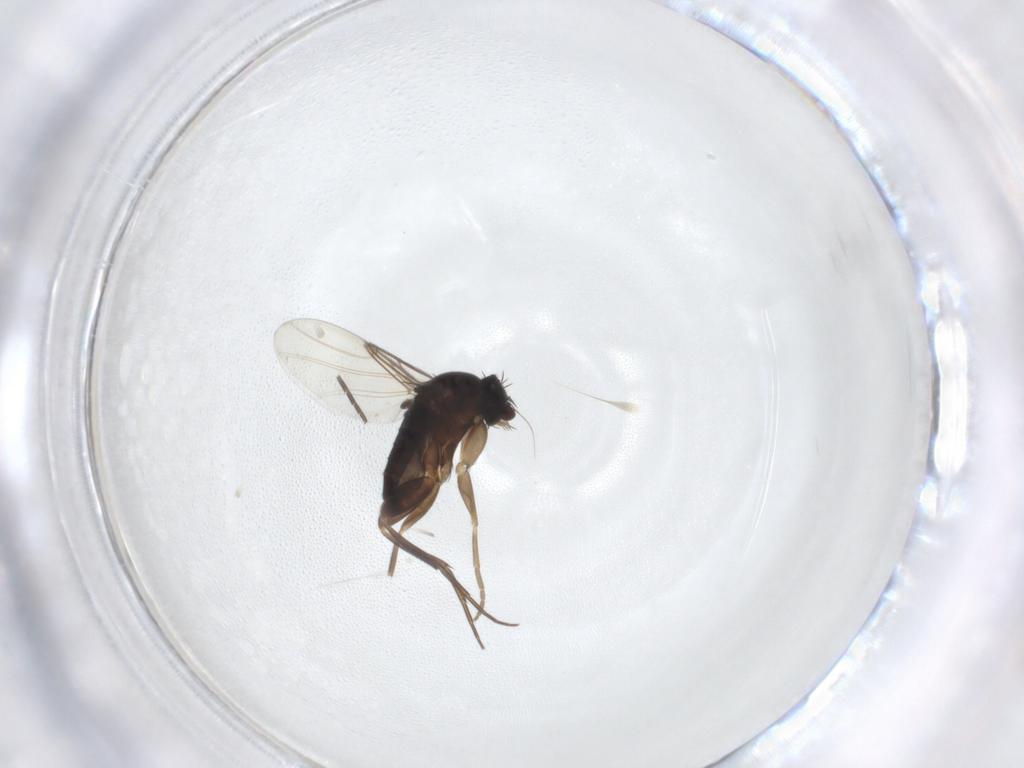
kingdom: Animalia
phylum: Arthropoda
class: Insecta
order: Diptera
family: Phoridae
